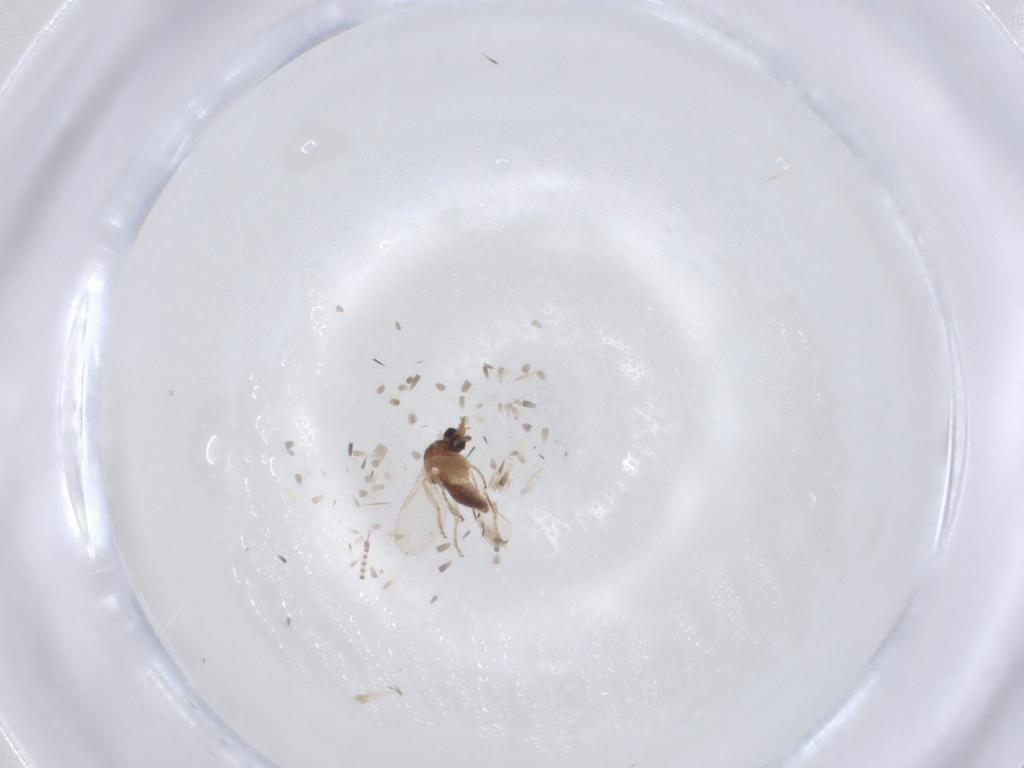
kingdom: Animalia
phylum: Arthropoda
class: Insecta
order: Diptera
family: Ceratopogonidae
